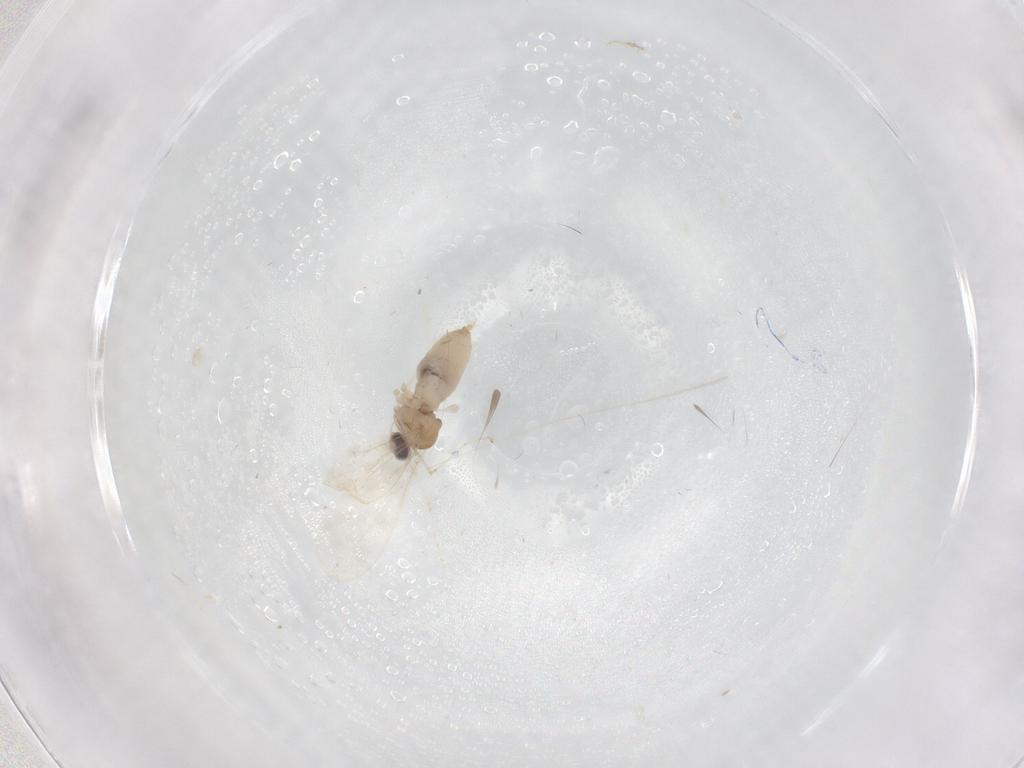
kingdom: Animalia
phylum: Arthropoda
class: Insecta
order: Diptera
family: Cecidomyiidae
